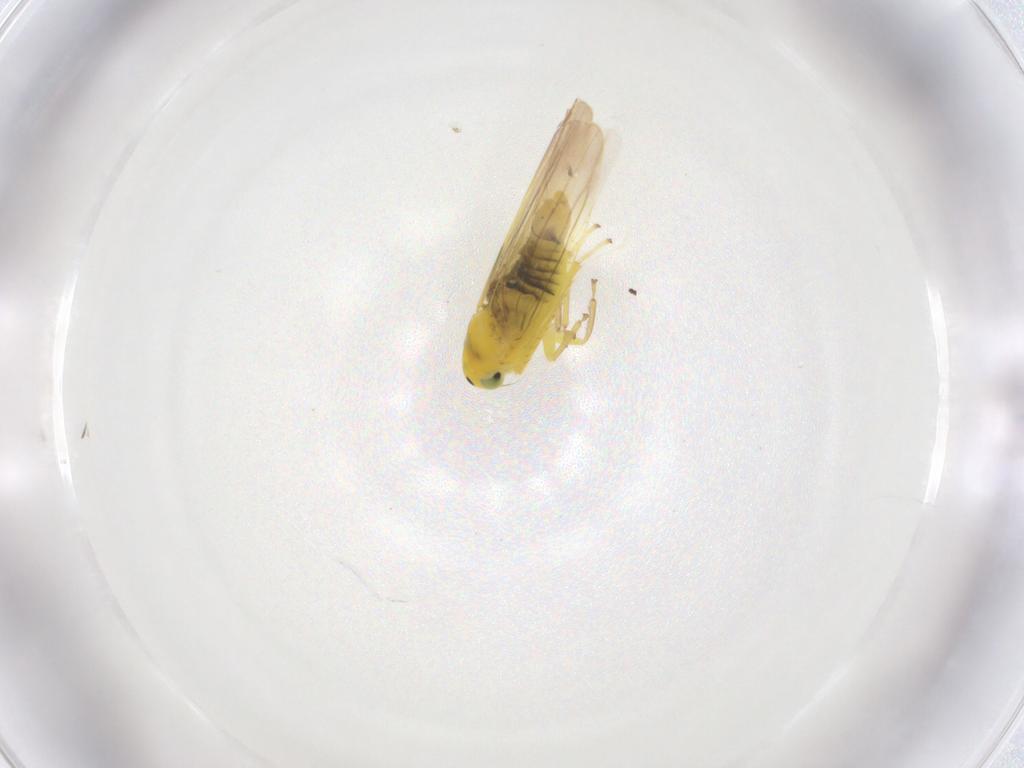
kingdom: Animalia
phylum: Arthropoda
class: Insecta
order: Hemiptera
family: Cicadellidae
